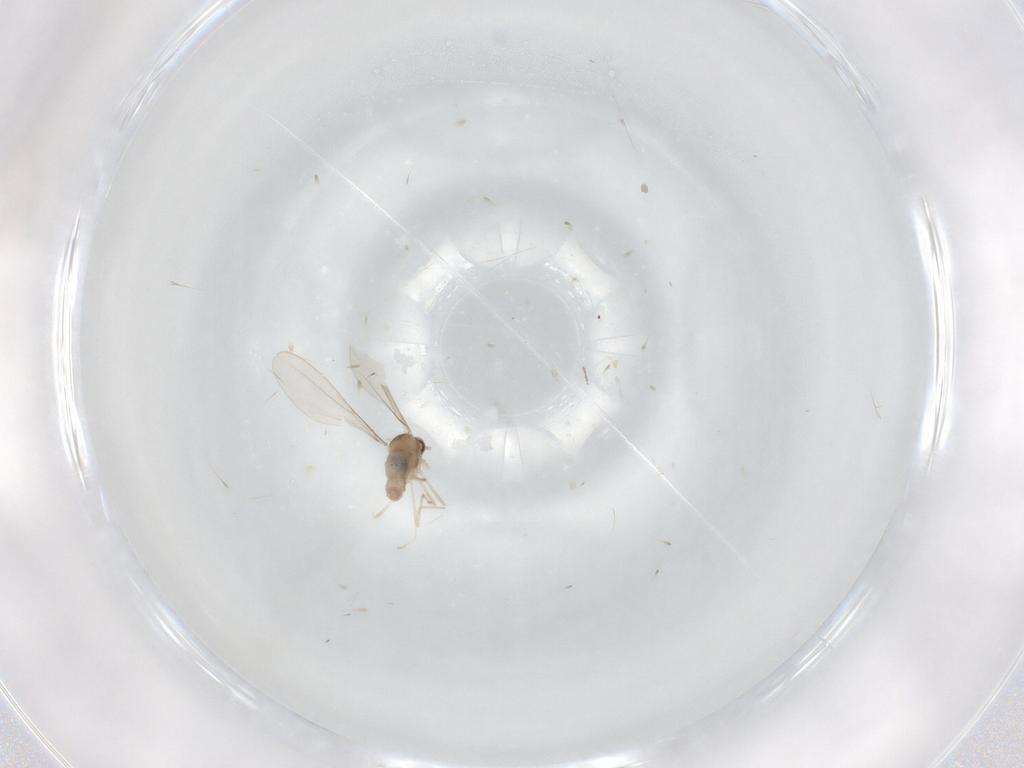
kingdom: Animalia
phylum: Arthropoda
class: Insecta
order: Diptera
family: Cecidomyiidae
